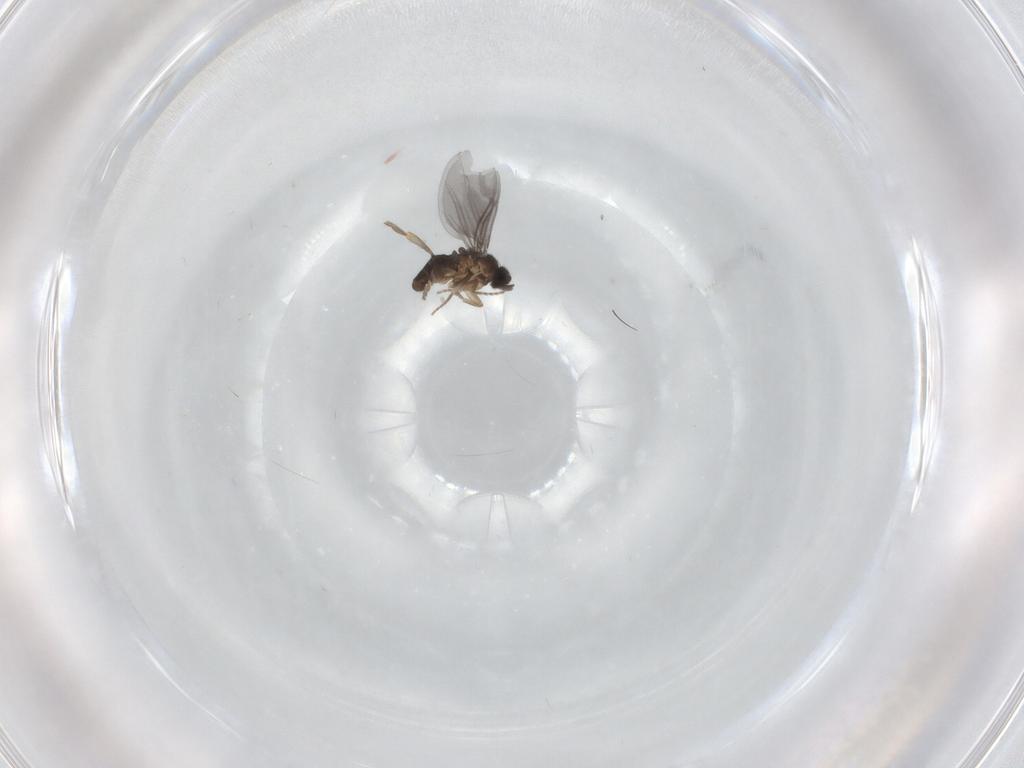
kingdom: Animalia
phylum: Arthropoda
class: Insecta
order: Diptera
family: Phoridae
